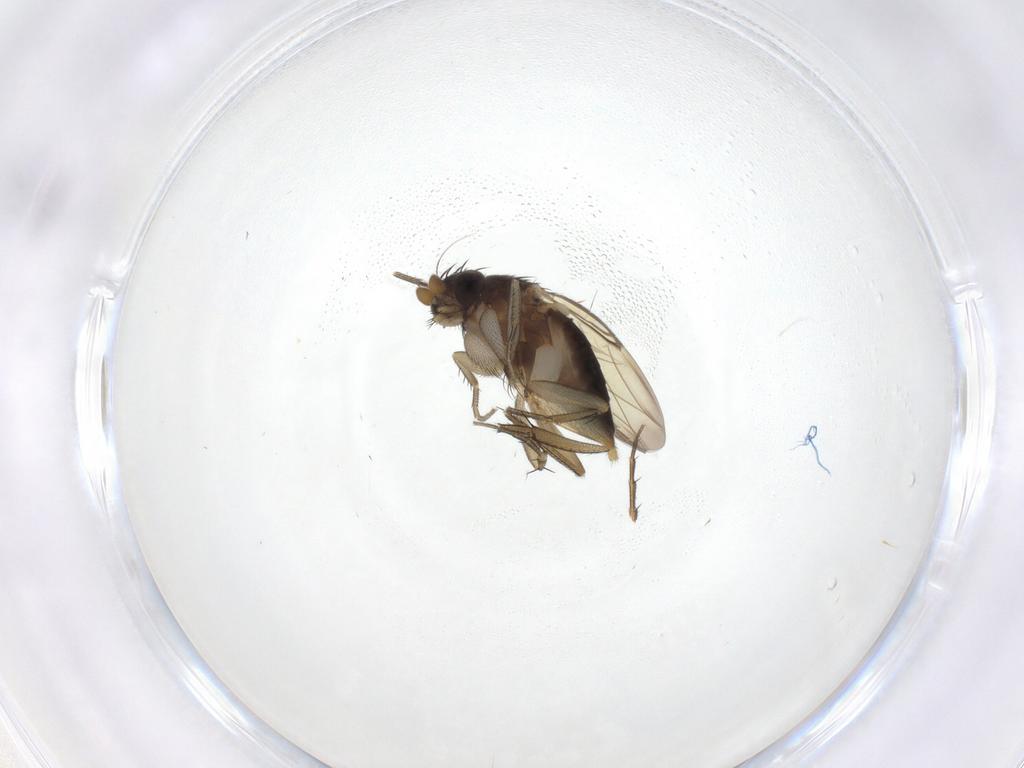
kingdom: Animalia
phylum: Arthropoda
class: Insecta
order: Diptera
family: Phoridae
